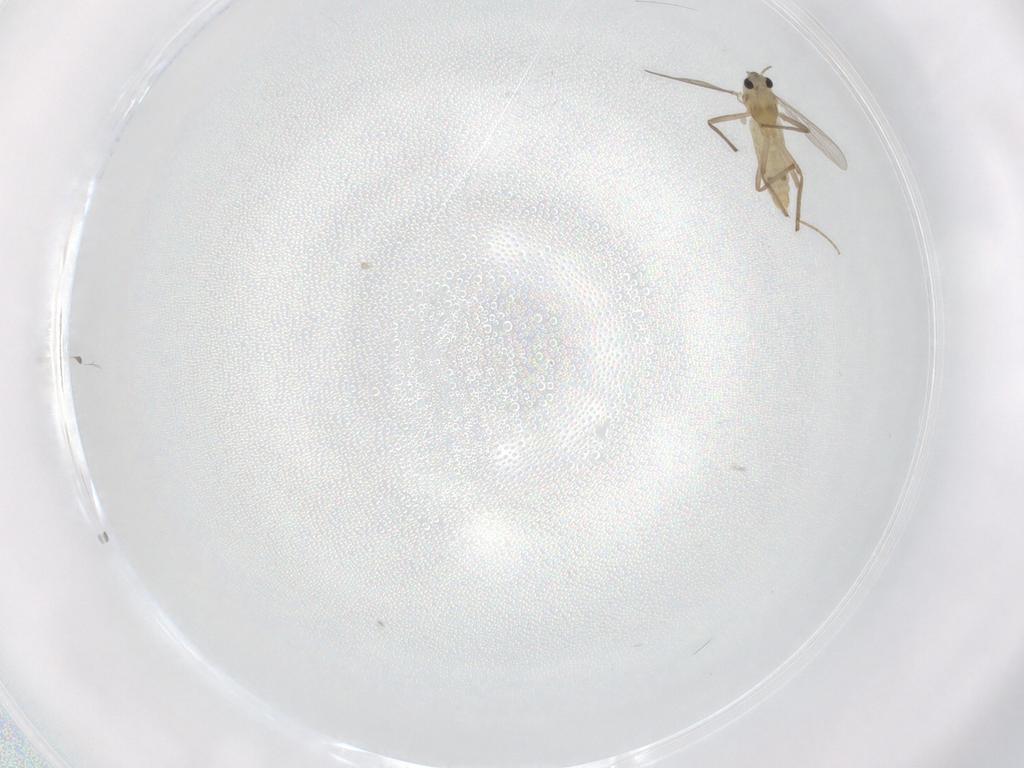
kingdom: Animalia
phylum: Arthropoda
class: Insecta
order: Diptera
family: Chironomidae
